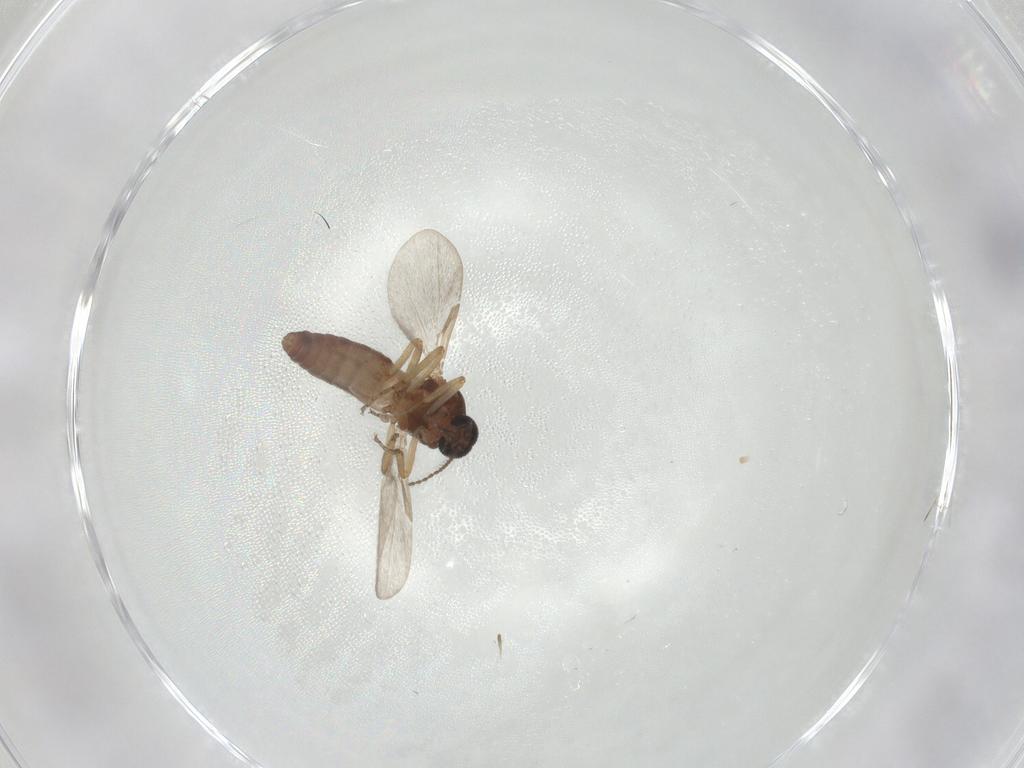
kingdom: Animalia
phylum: Arthropoda
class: Insecta
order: Diptera
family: Ceratopogonidae
